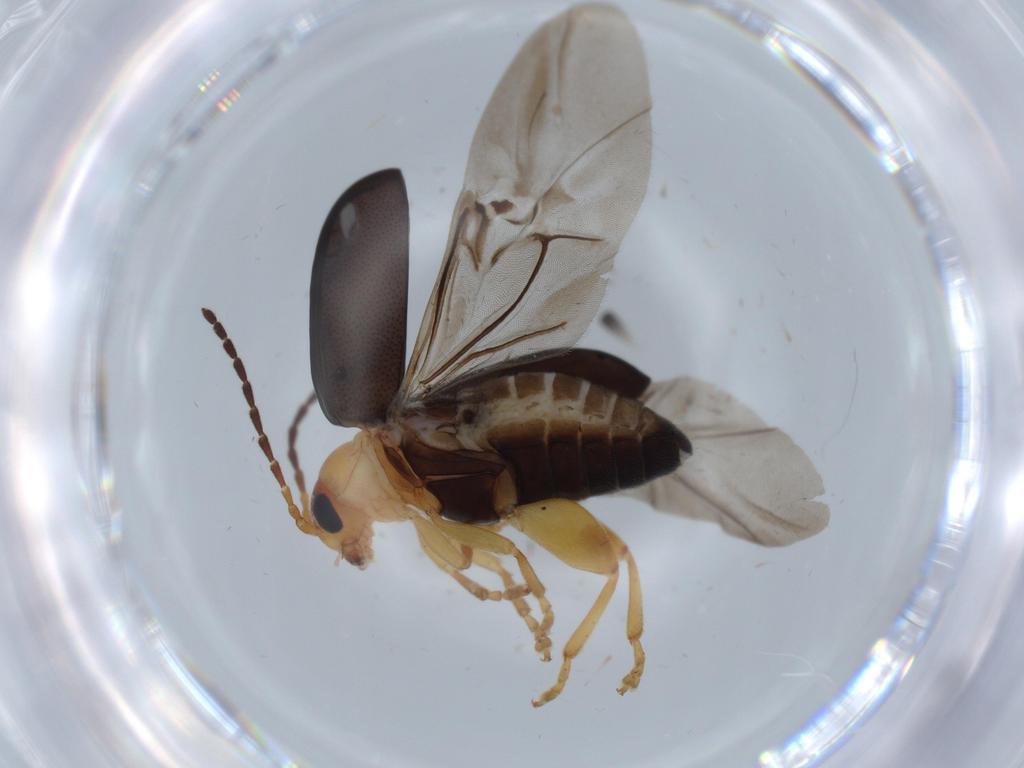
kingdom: Animalia
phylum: Arthropoda
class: Insecta
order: Coleoptera
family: Chrysomelidae
